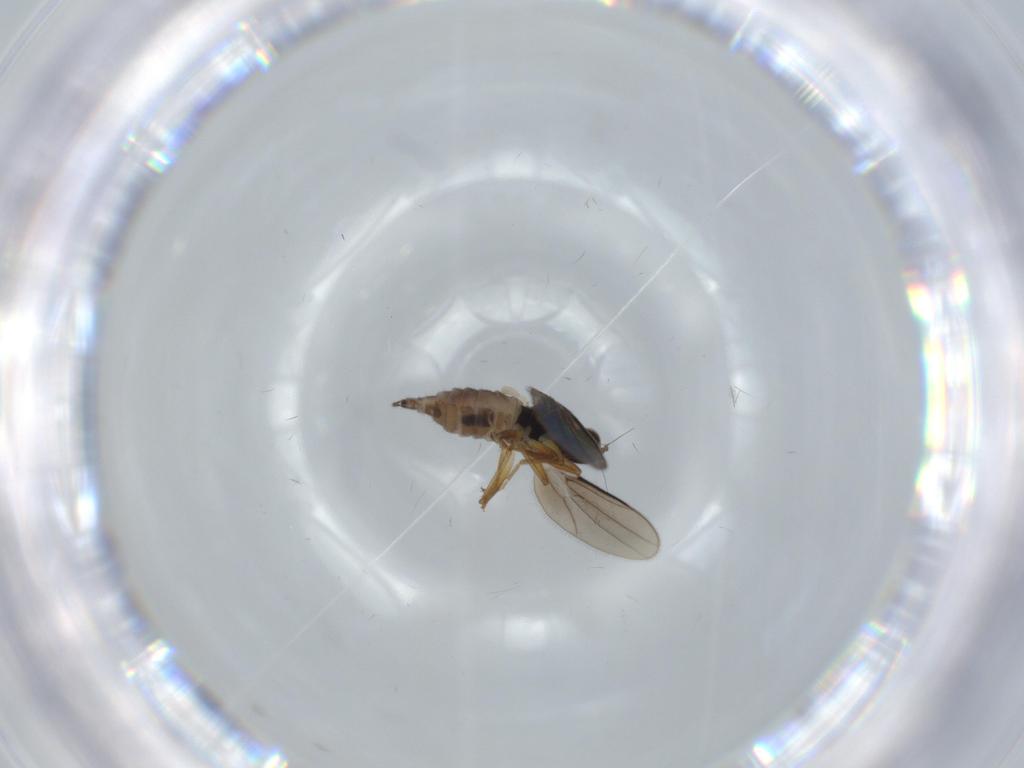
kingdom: Animalia
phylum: Arthropoda
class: Insecta
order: Diptera
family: Hybotidae
